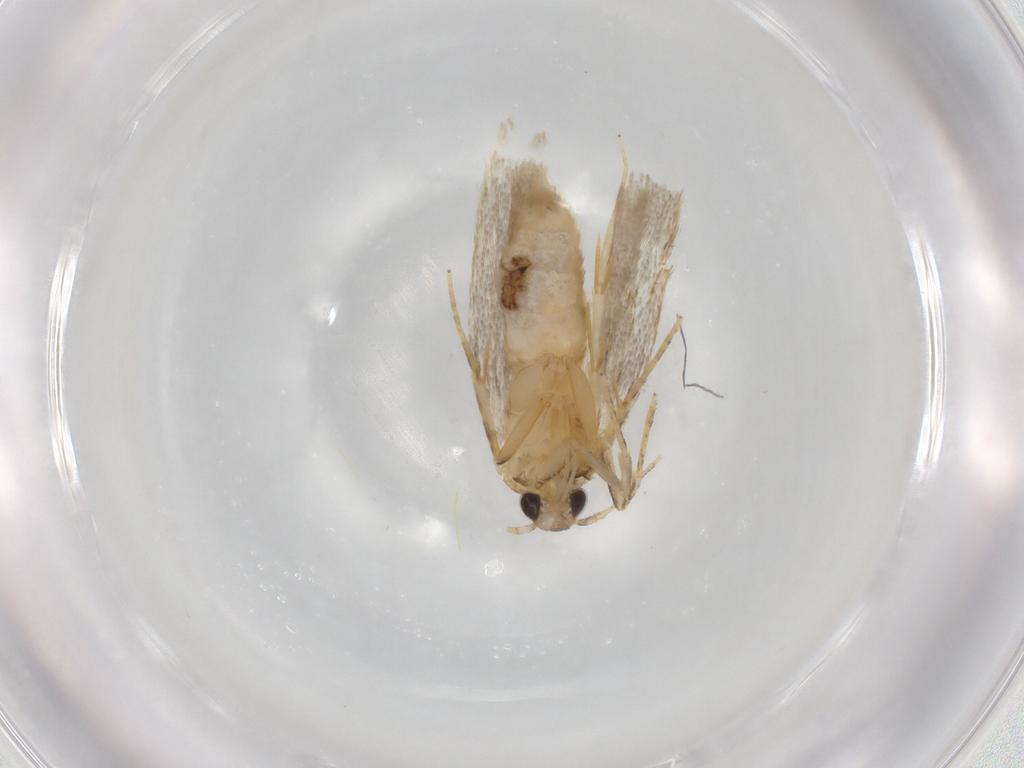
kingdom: Animalia
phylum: Arthropoda
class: Insecta
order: Lepidoptera
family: Autostichidae
